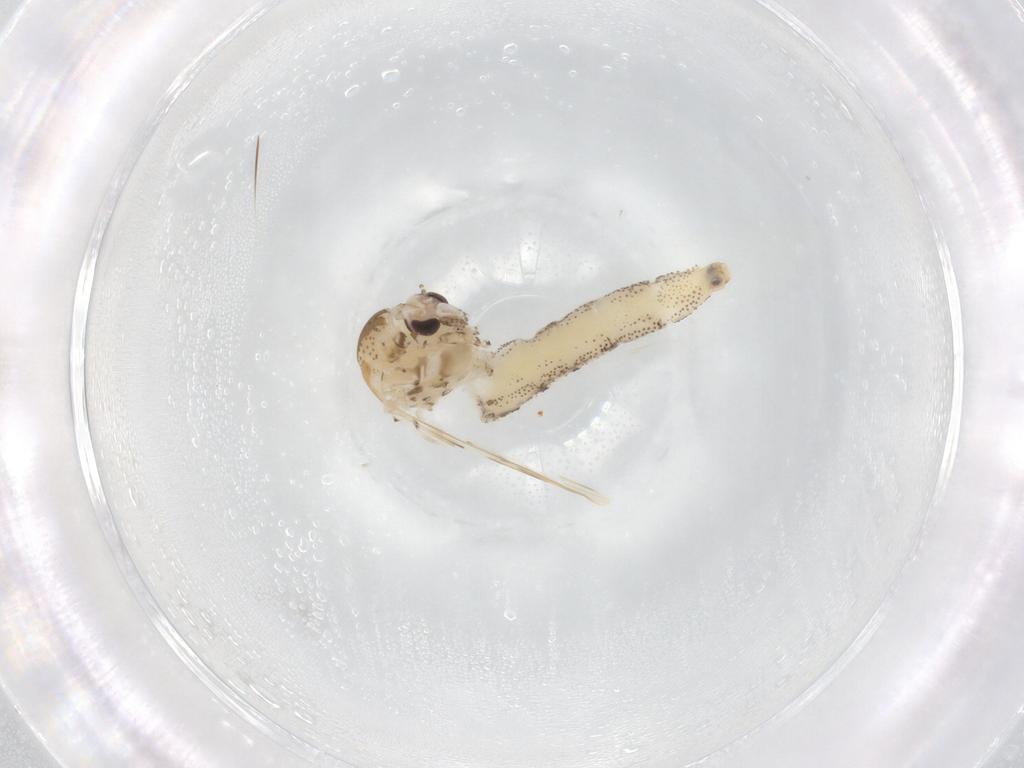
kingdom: Animalia
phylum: Arthropoda
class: Insecta
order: Diptera
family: Chaoboridae
